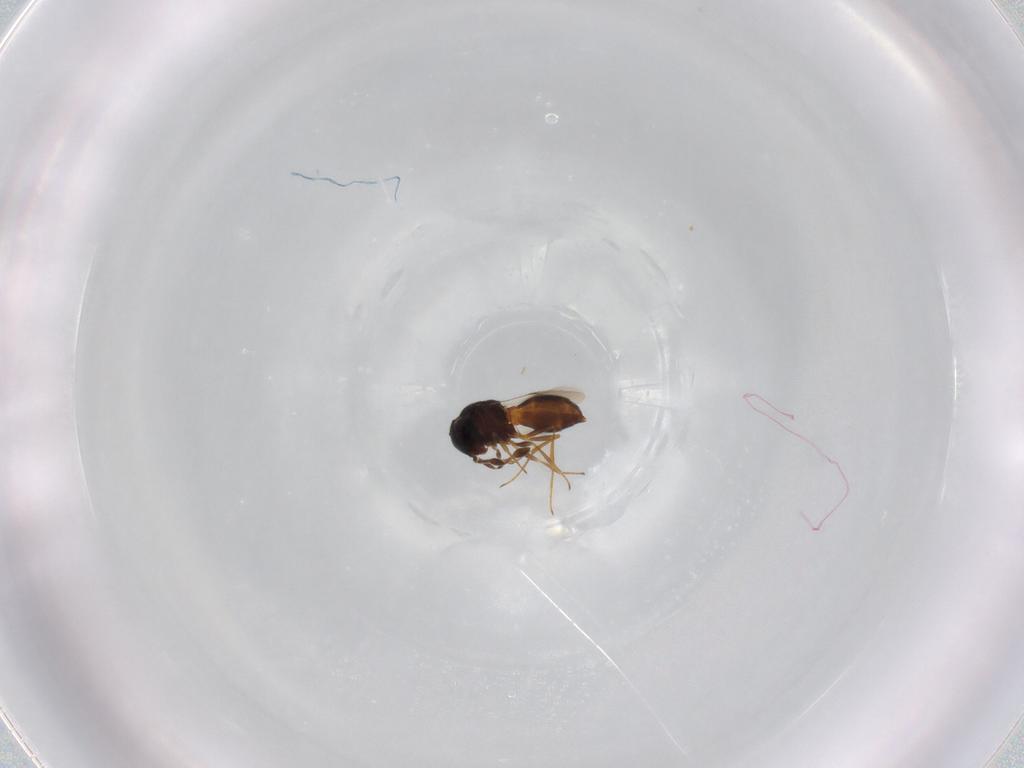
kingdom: Animalia
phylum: Arthropoda
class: Insecta
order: Hymenoptera
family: Scelionidae
